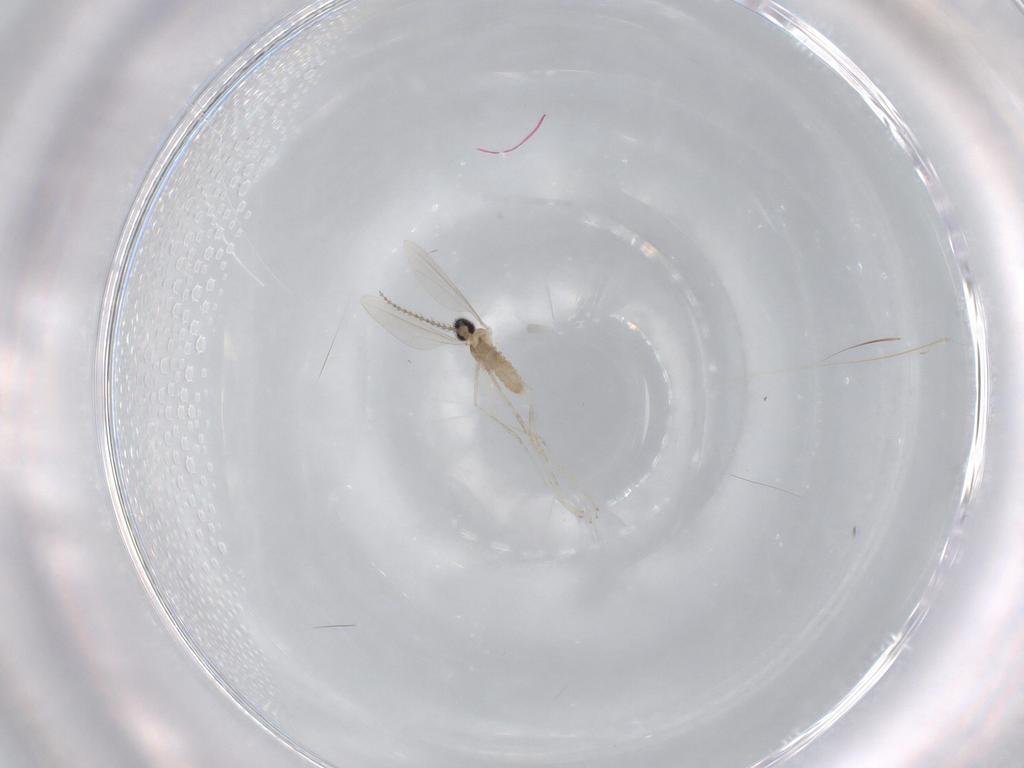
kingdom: Animalia
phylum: Arthropoda
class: Insecta
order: Diptera
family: Cecidomyiidae
